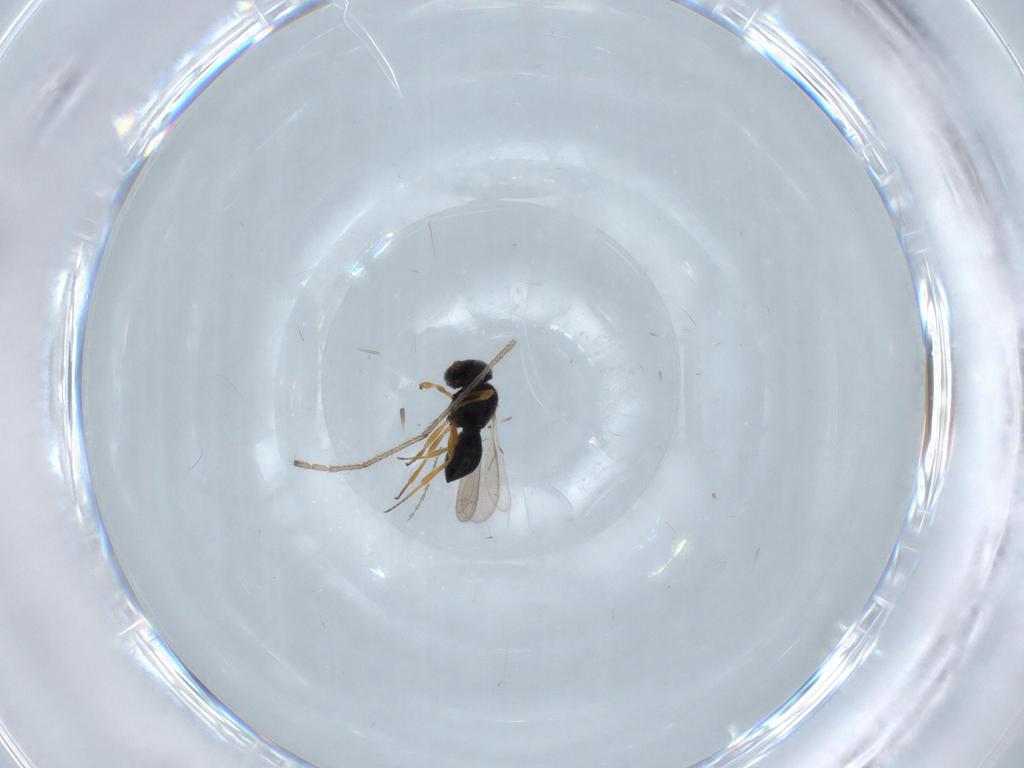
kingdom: Animalia
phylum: Arthropoda
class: Insecta
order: Hymenoptera
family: Scelionidae
